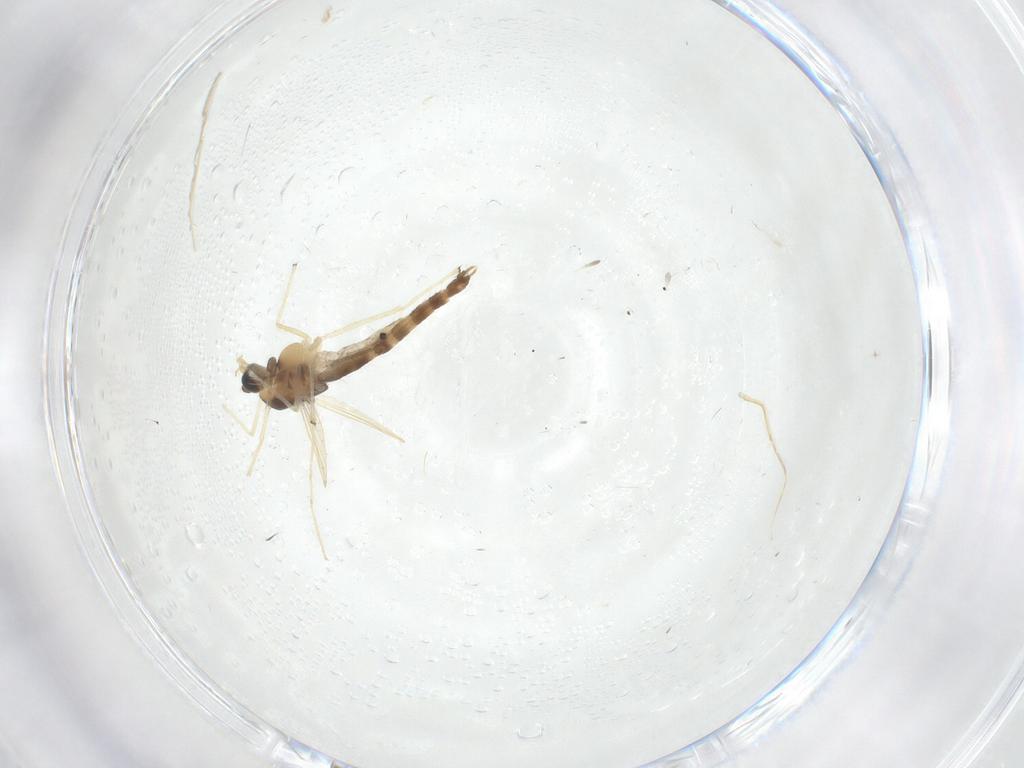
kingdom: Animalia
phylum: Arthropoda
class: Insecta
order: Diptera
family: Chironomidae
